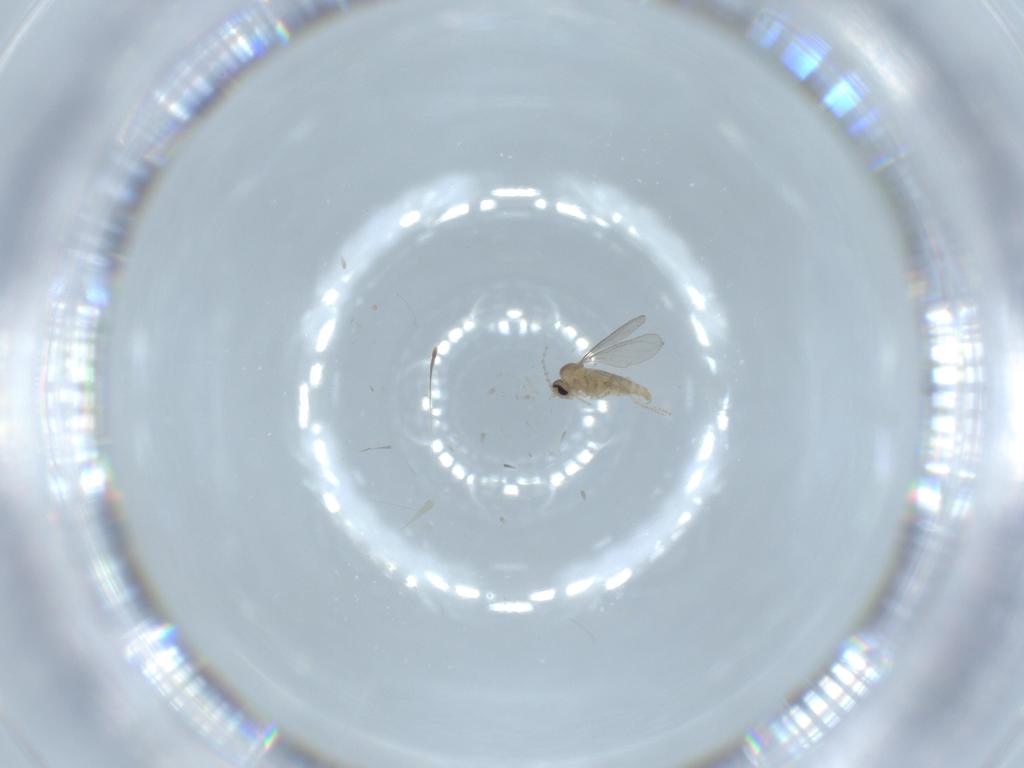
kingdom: Animalia
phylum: Arthropoda
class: Insecta
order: Diptera
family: Cecidomyiidae
